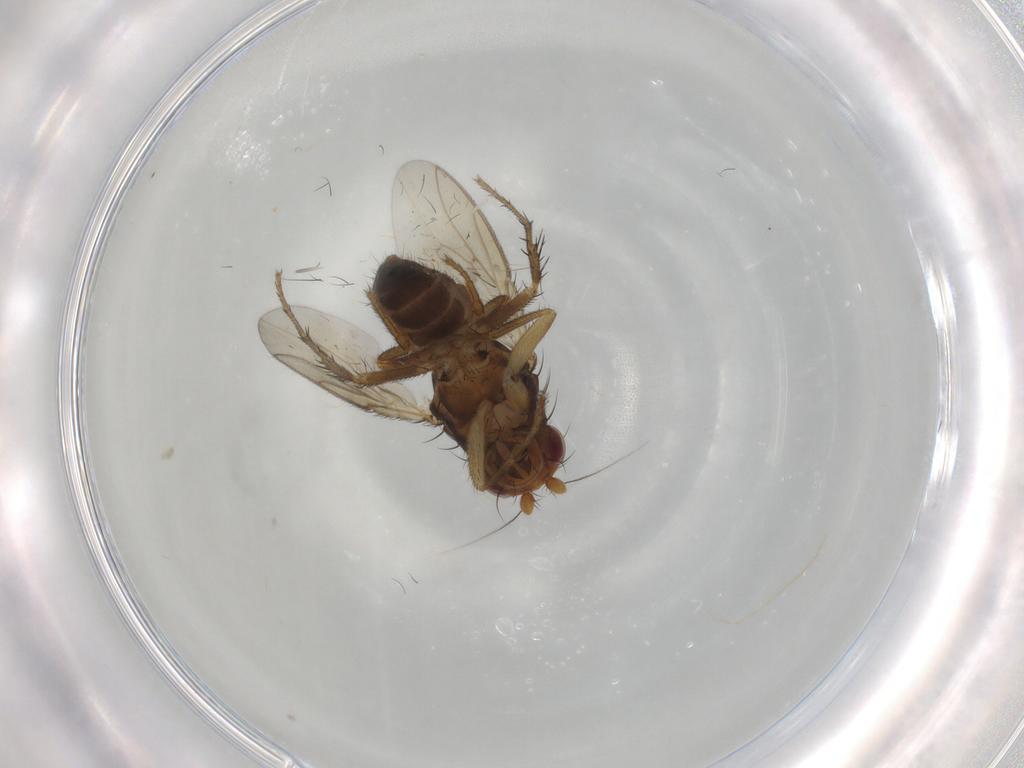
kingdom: Animalia
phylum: Arthropoda
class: Insecta
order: Diptera
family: Sphaeroceridae
